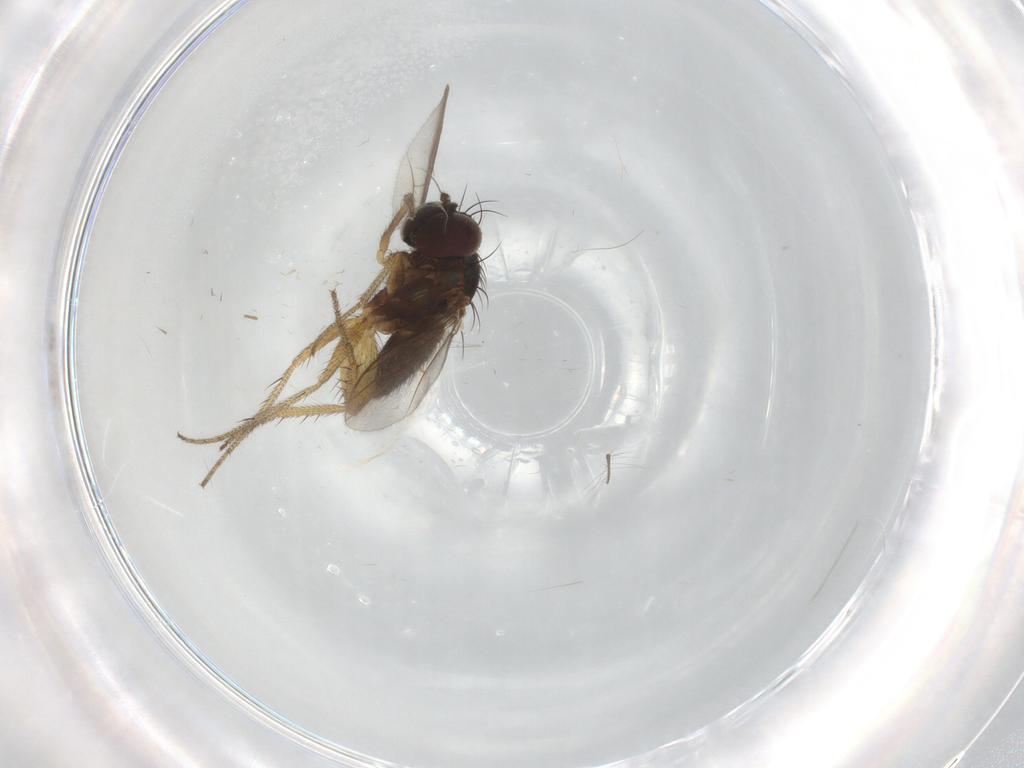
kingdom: Animalia
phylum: Arthropoda
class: Insecta
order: Diptera
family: Dolichopodidae
